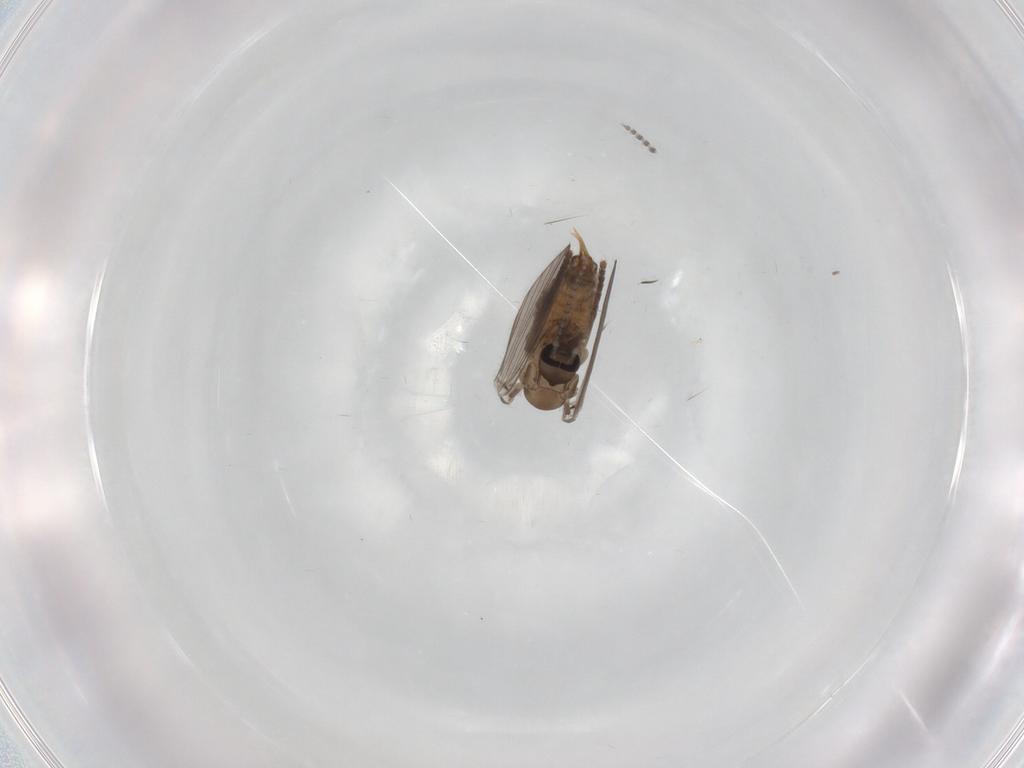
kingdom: Animalia
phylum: Arthropoda
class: Insecta
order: Diptera
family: Psychodidae
